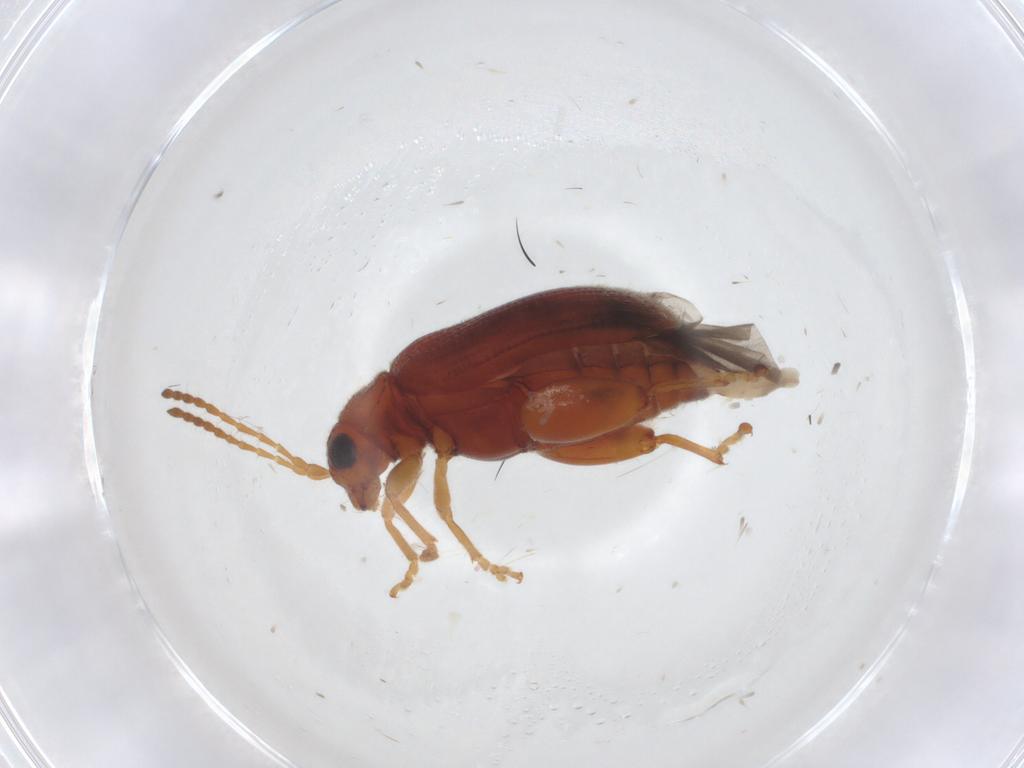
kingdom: Animalia
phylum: Arthropoda
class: Insecta
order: Coleoptera
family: Chrysomelidae
